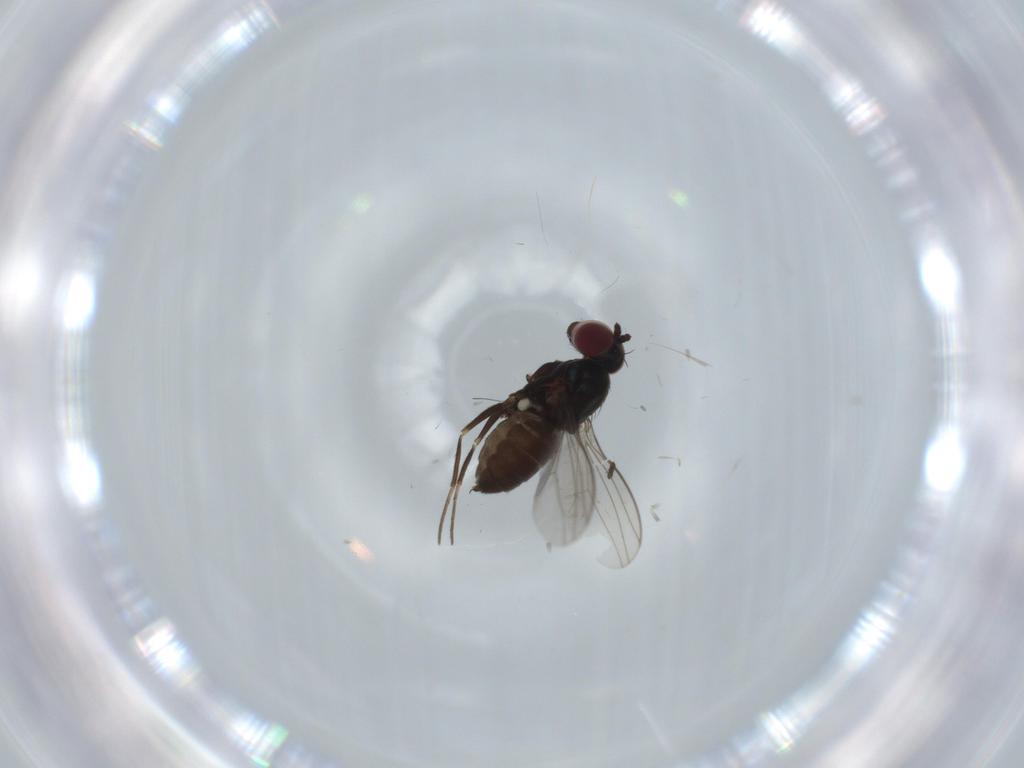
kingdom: Animalia
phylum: Arthropoda
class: Insecta
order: Diptera
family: Dolichopodidae
